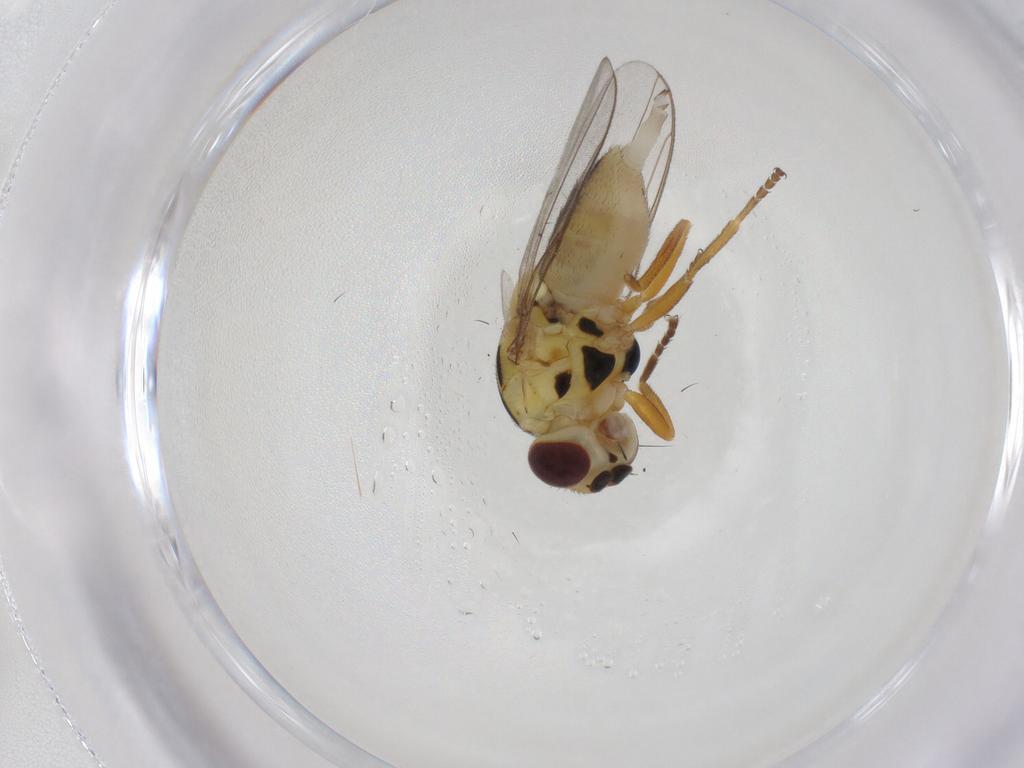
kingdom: Animalia
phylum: Arthropoda
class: Insecta
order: Diptera
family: Chloropidae
